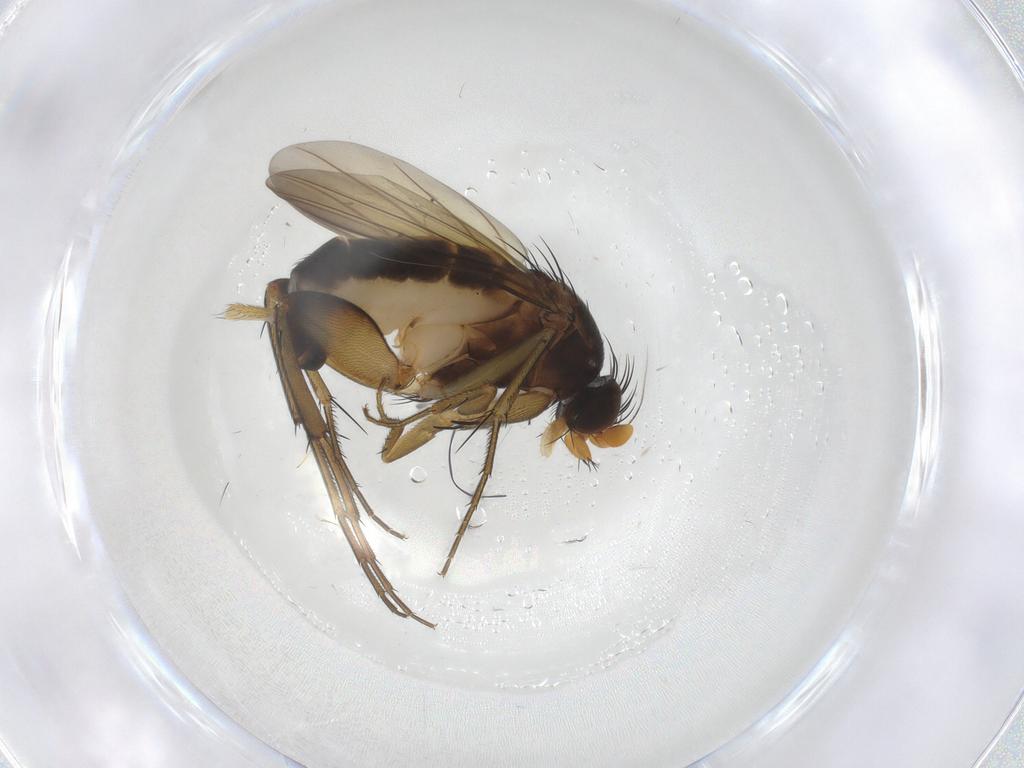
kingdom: Animalia
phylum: Arthropoda
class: Insecta
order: Diptera
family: Phoridae
